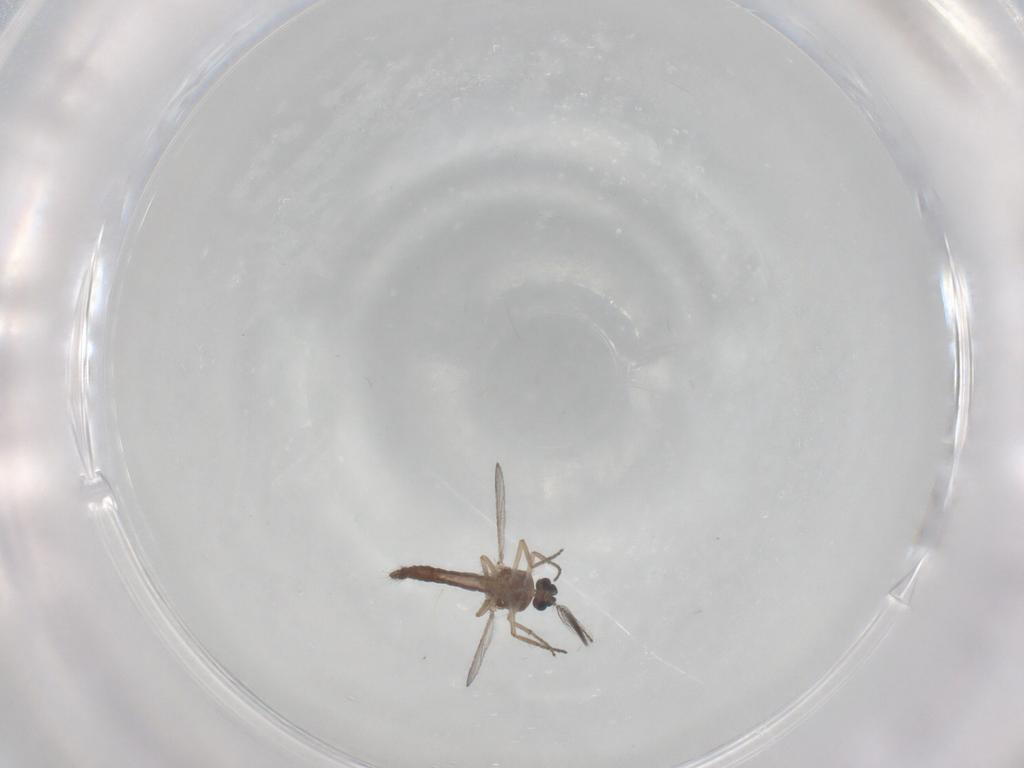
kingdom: Animalia
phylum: Arthropoda
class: Insecta
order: Diptera
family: Ceratopogonidae
